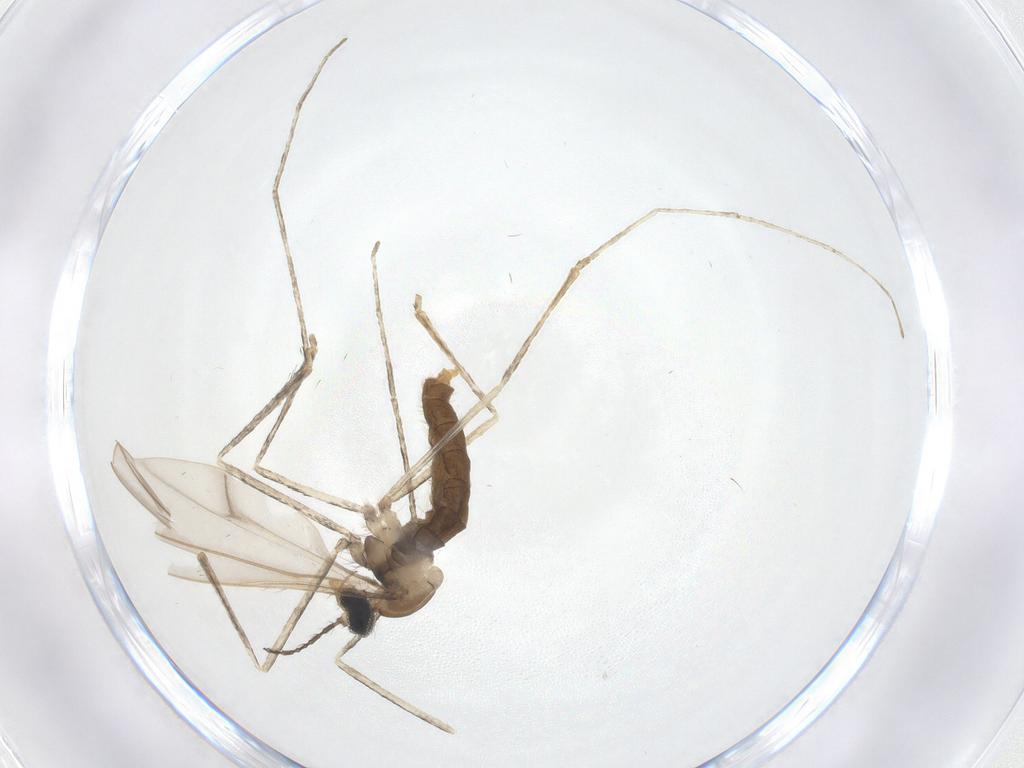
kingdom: Animalia
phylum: Arthropoda
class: Insecta
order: Diptera
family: Cecidomyiidae
